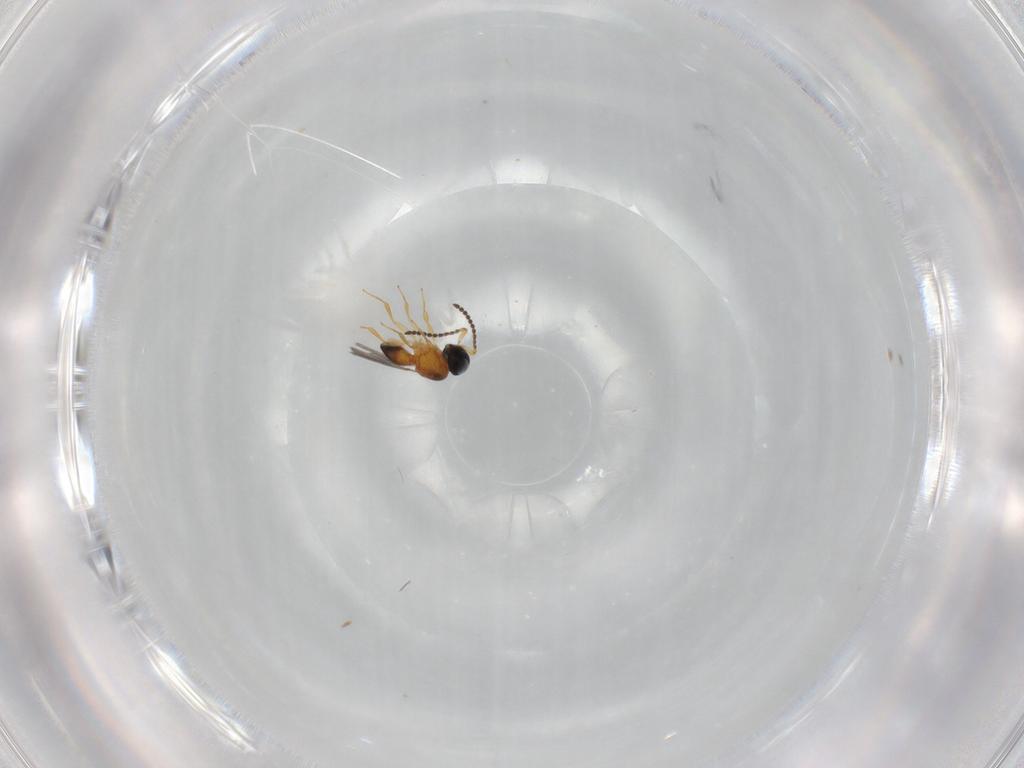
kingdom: Animalia
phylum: Arthropoda
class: Insecta
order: Hymenoptera
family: Scelionidae
